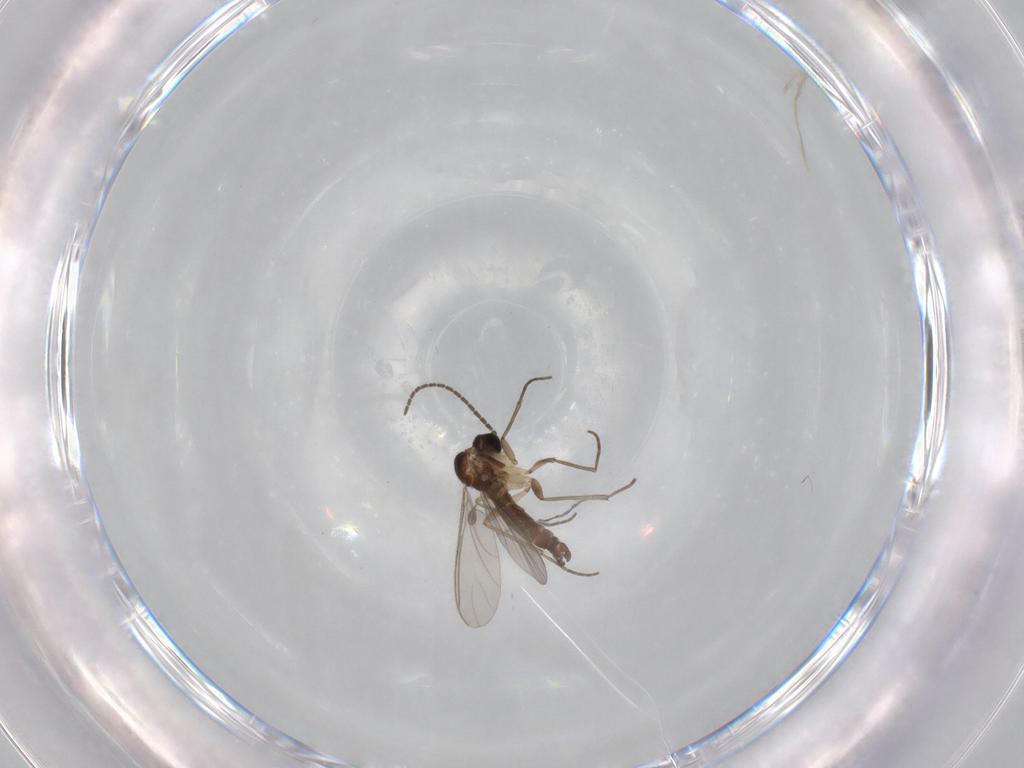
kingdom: Animalia
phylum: Arthropoda
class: Insecta
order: Diptera
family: Sciaridae
